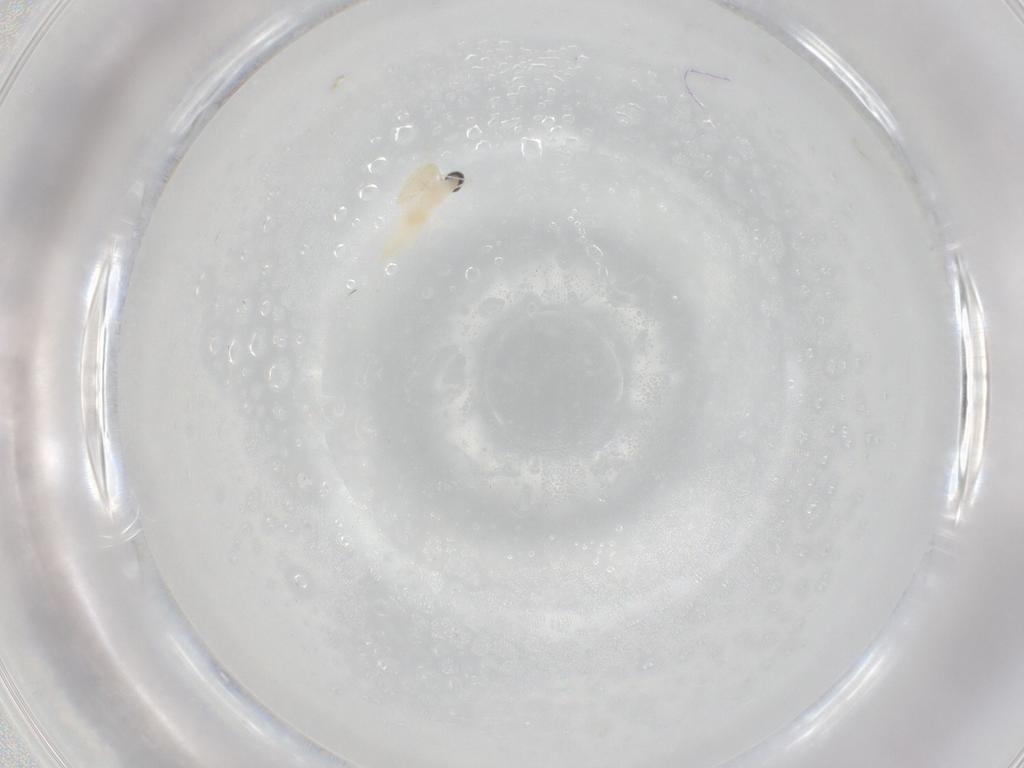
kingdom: Animalia
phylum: Arthropoda
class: Insecta
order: Diptera
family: Cecidomyiidae
